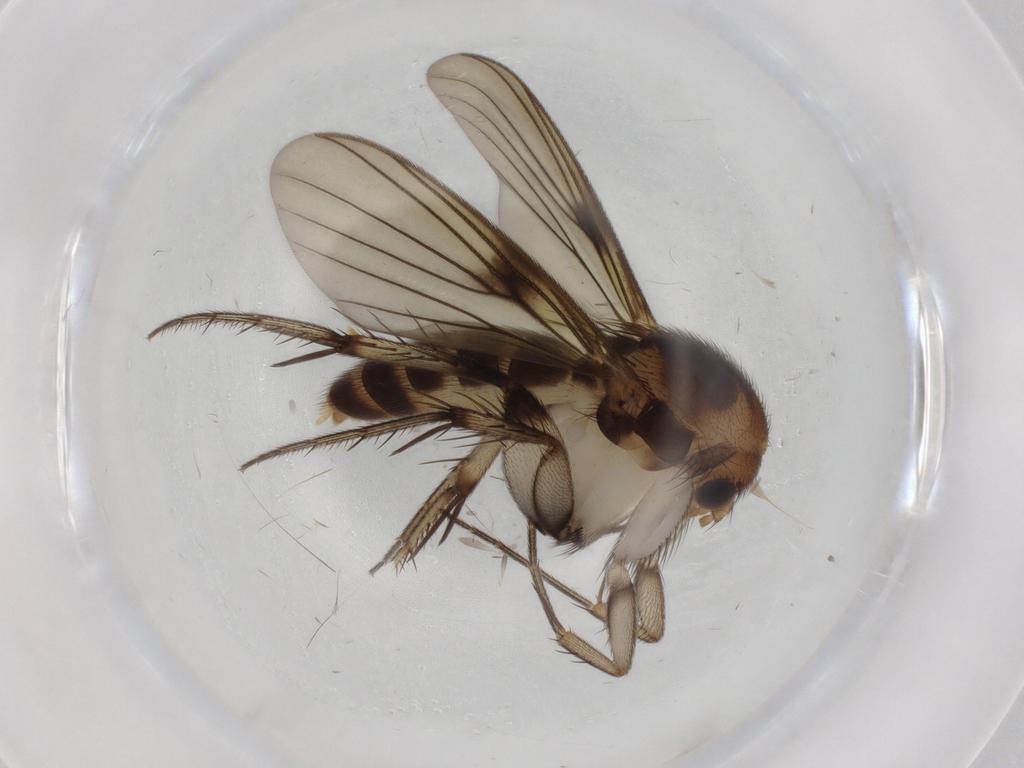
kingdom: Animalia
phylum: Arthropoda
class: Insecta
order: Diptera
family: Mycetophilidae
